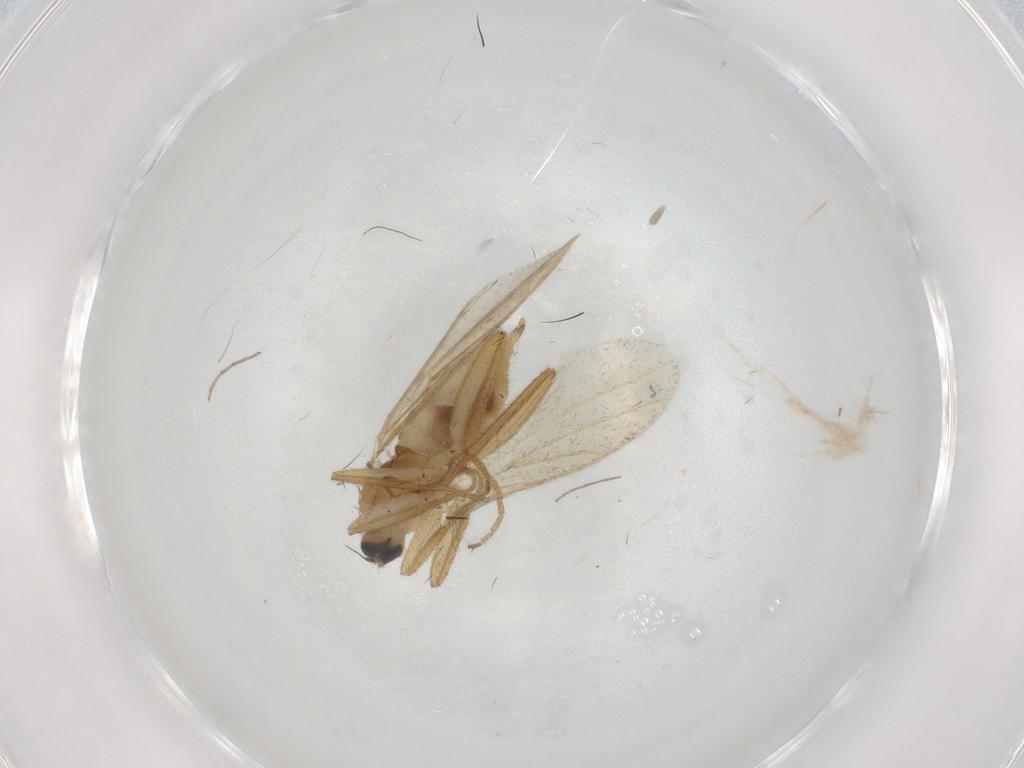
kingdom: Animalia
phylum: Arthropoda
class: Insecta
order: Diptera
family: Hybotidae
